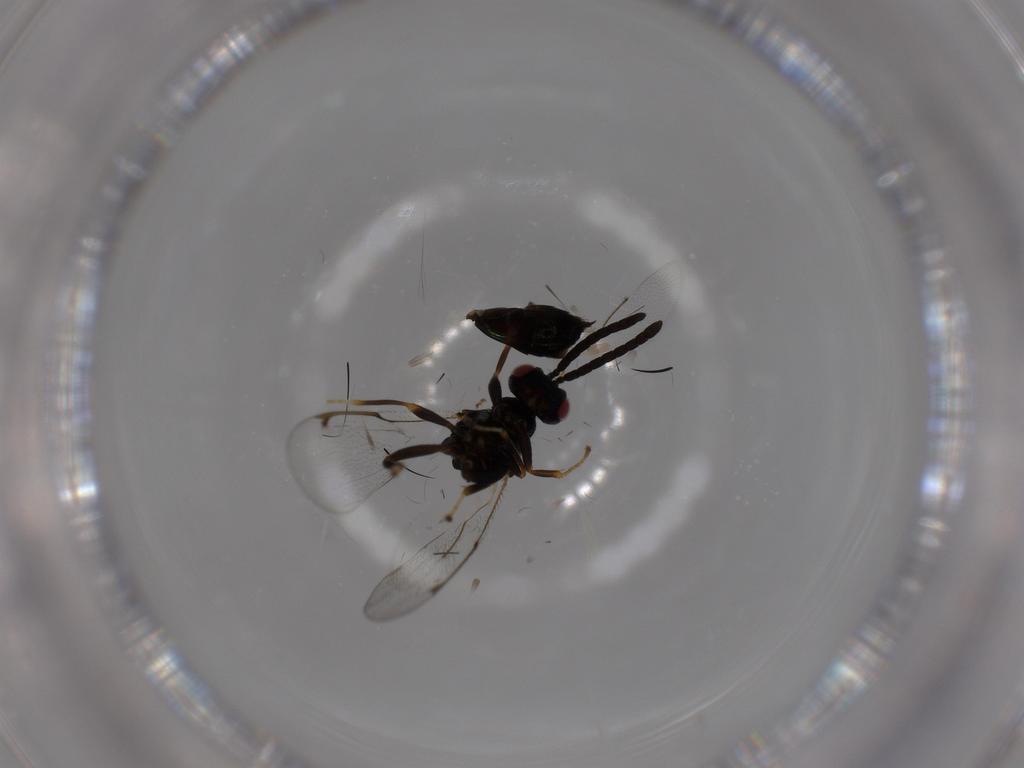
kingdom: Animalia
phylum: Arthropoda
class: Insecta
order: Hymenoptera
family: Torymidae
